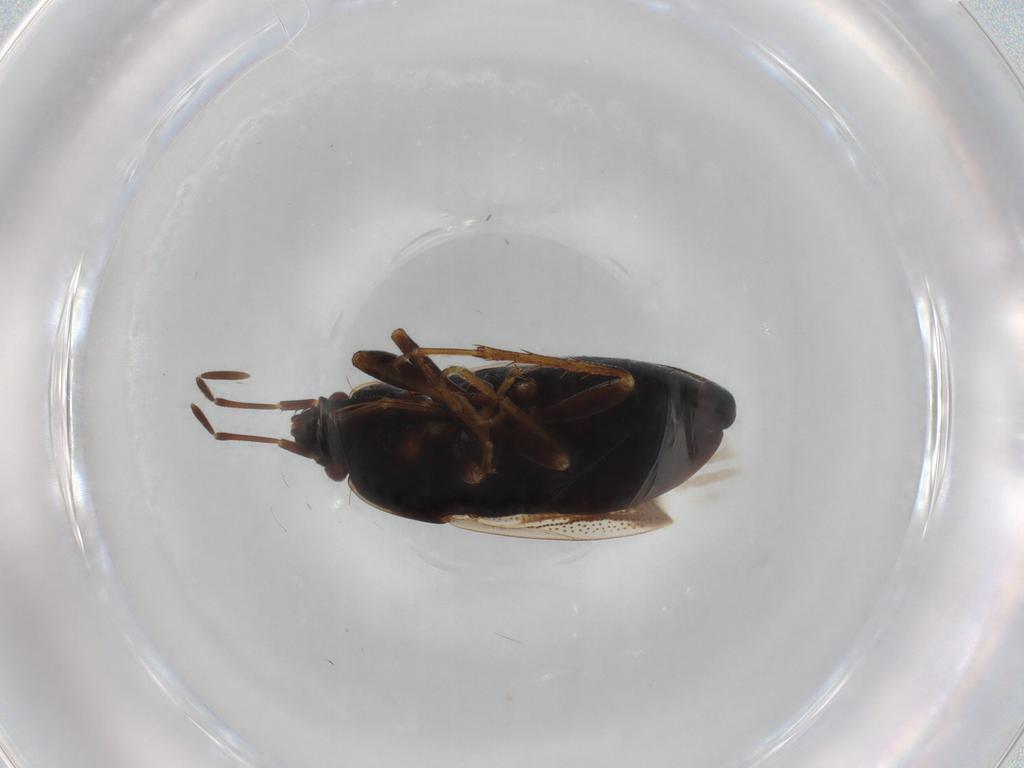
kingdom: Animalia
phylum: Arthropoda
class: Insecta
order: Hemiptera
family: Rhyparochromidae
